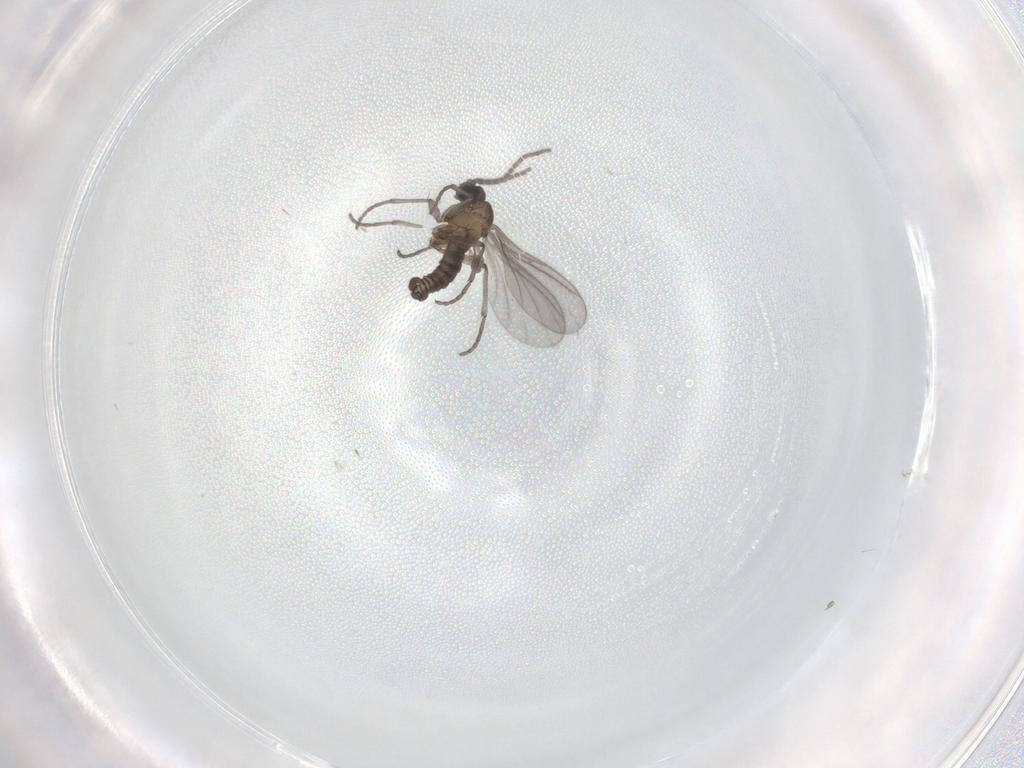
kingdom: Animalia
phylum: Arthropoda
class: Insecta
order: Diptera
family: Sciaridae
